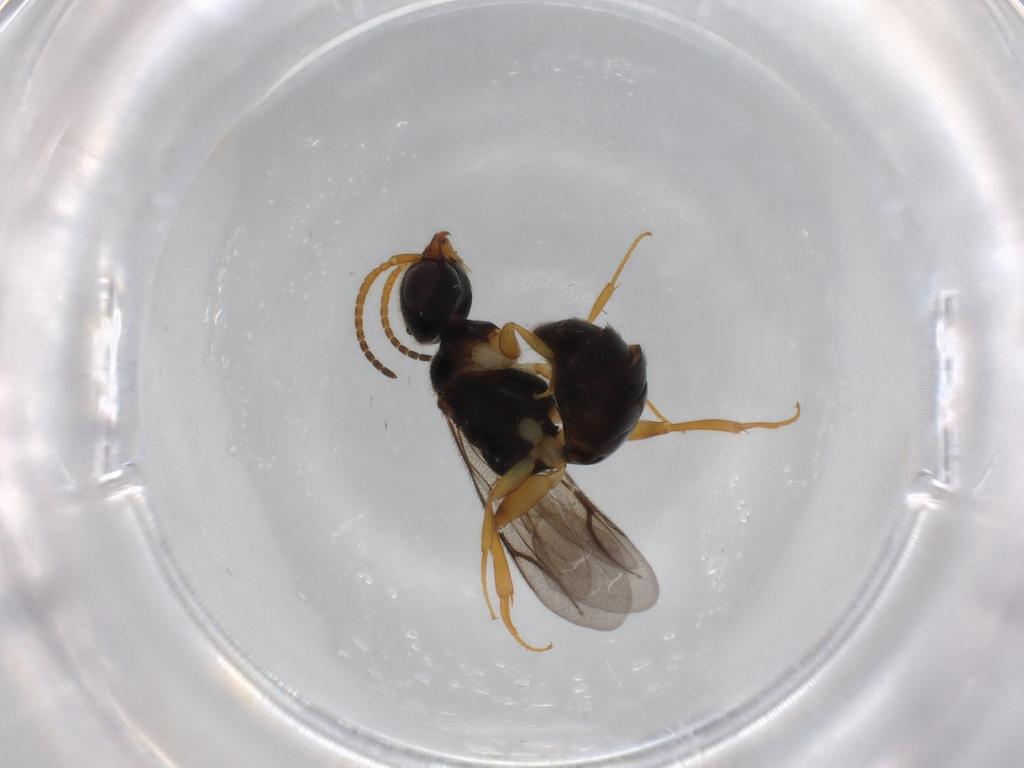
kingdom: Animalia
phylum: Arthropoda
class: Insecta
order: Hymenoptera
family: Bethylidae
